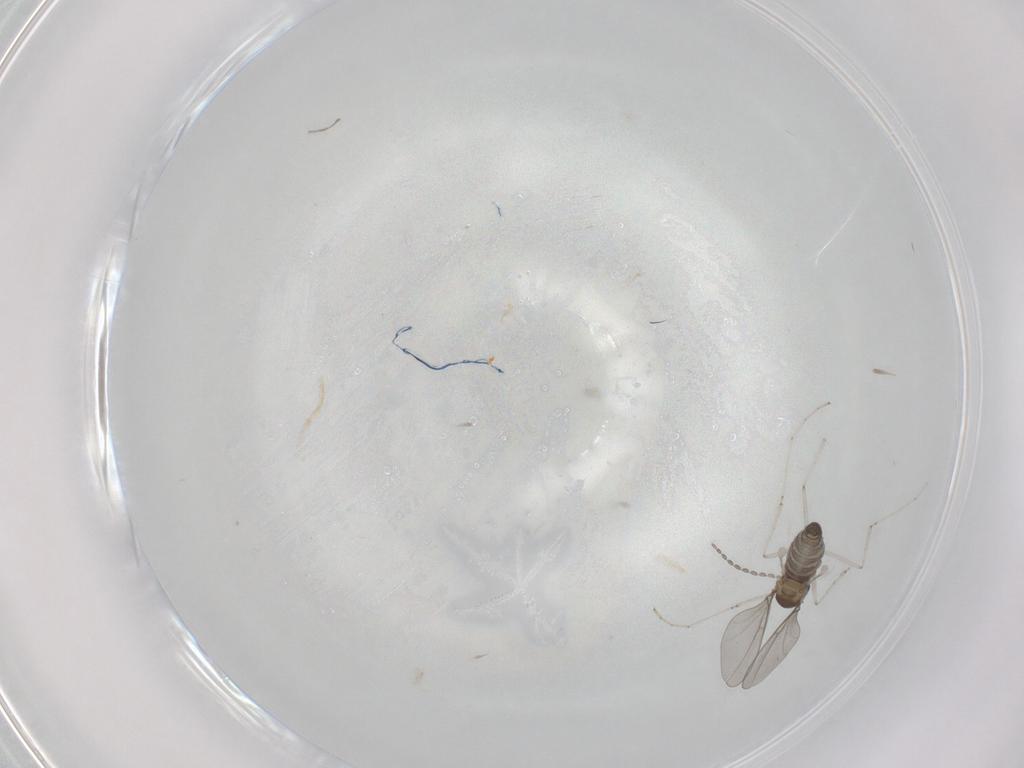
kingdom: Animalia
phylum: Arthropoda
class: Insecta
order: Diptera
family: Cecidomyiidae
